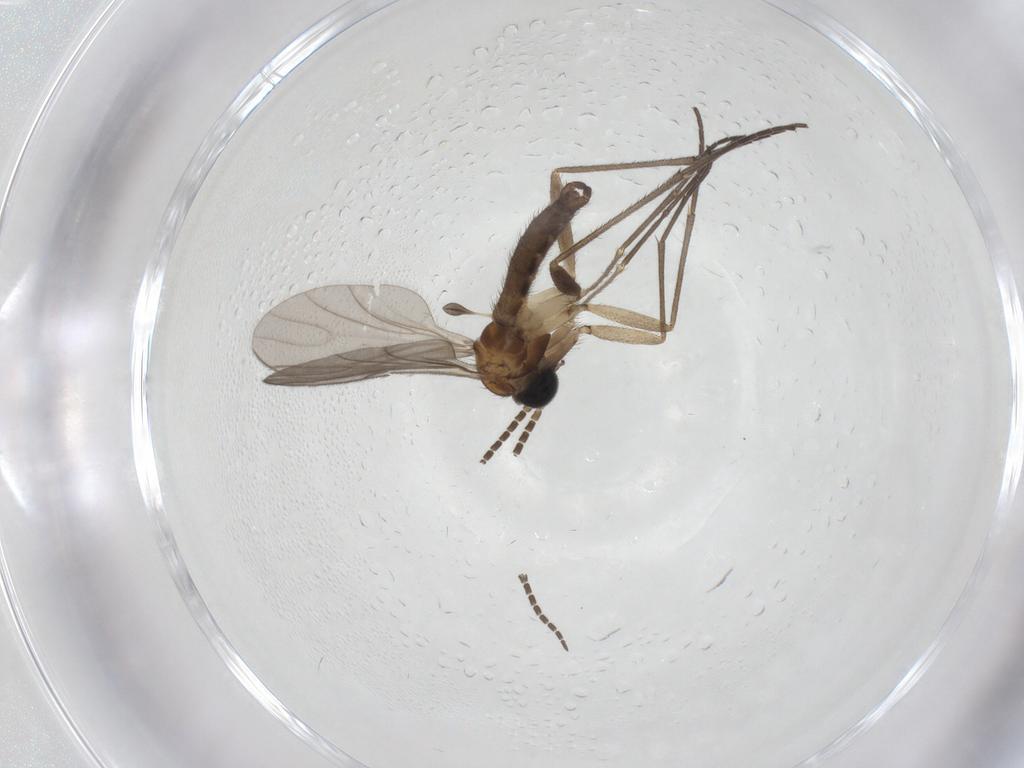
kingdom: Animalia
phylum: Arthropoda
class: Insecta
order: Diptera
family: Sciaridae
